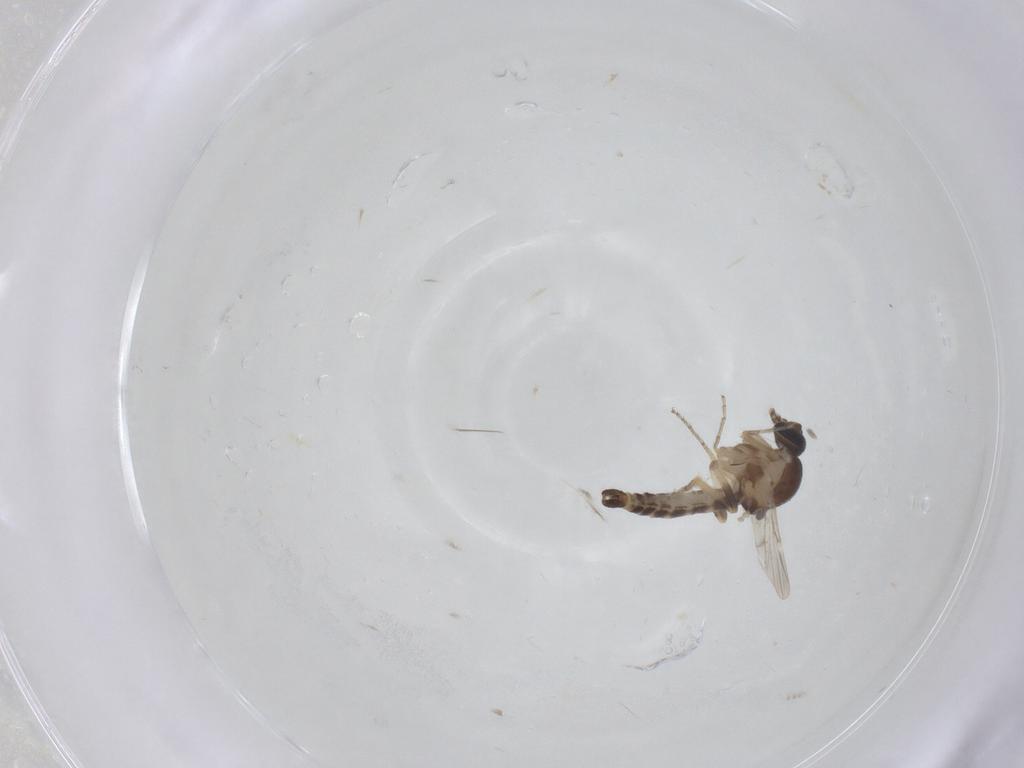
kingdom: Animalia
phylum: Arthropoda
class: Insecta
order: Diptera
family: Ceratopogonidae
